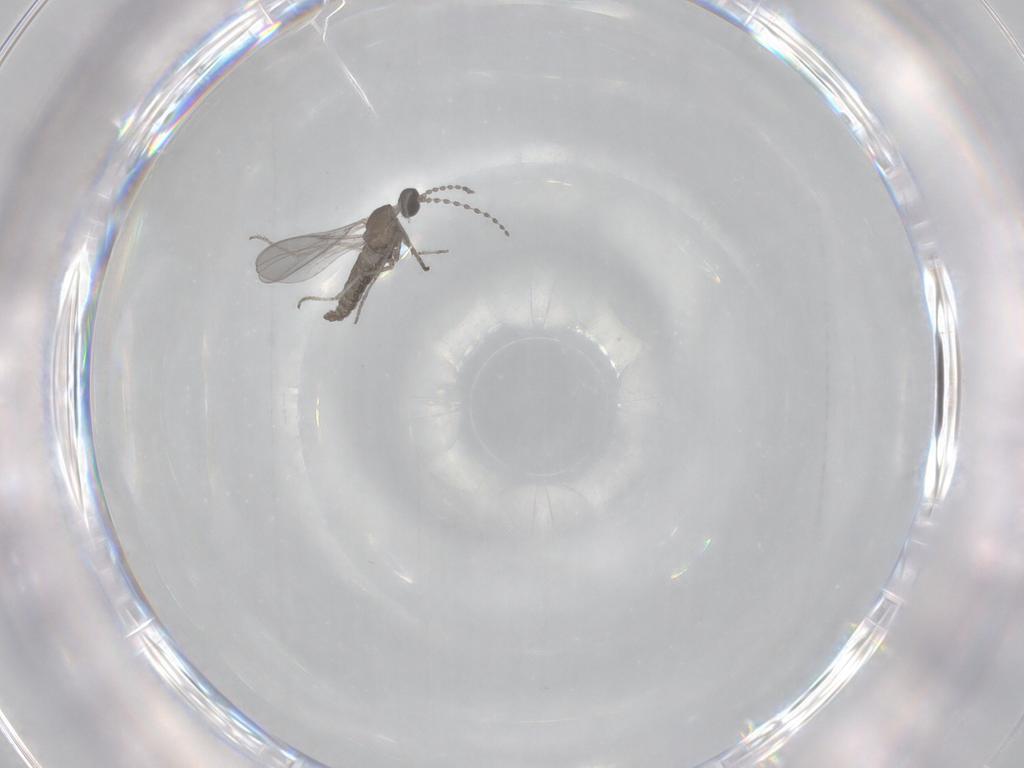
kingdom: Animalia
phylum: Arthropoda
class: Insecta
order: Diptera
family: Cecidomyiidae
